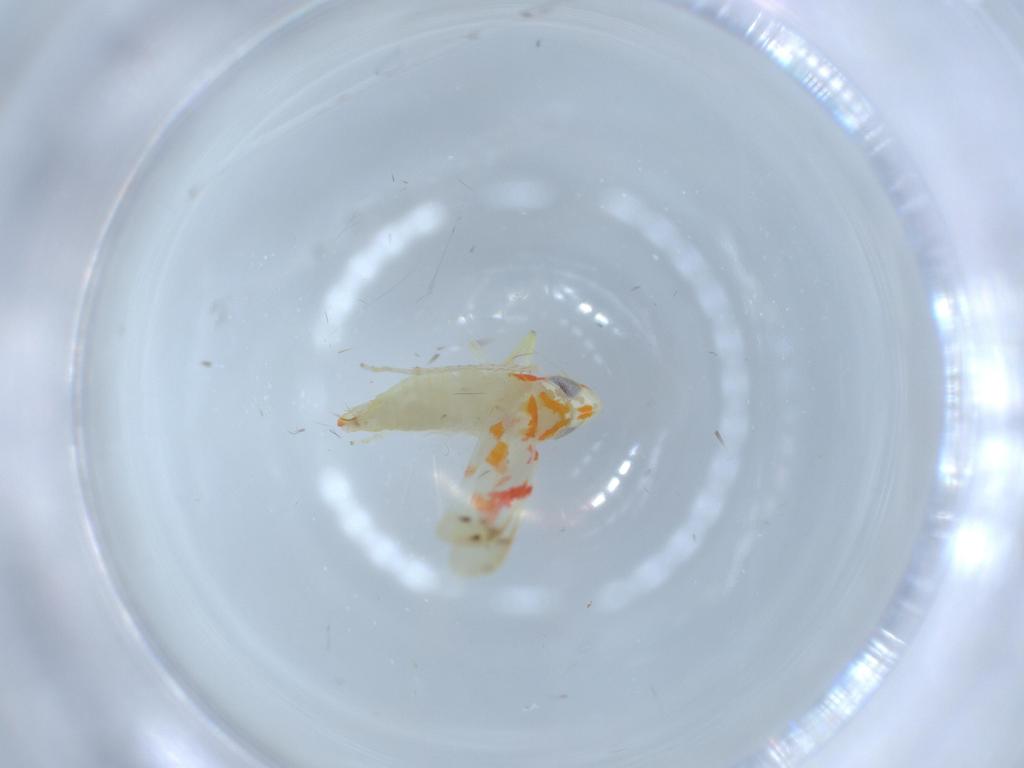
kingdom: Animalia
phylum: Arthropoda
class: Insecta
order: Hemiptera
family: Cicadellidae
